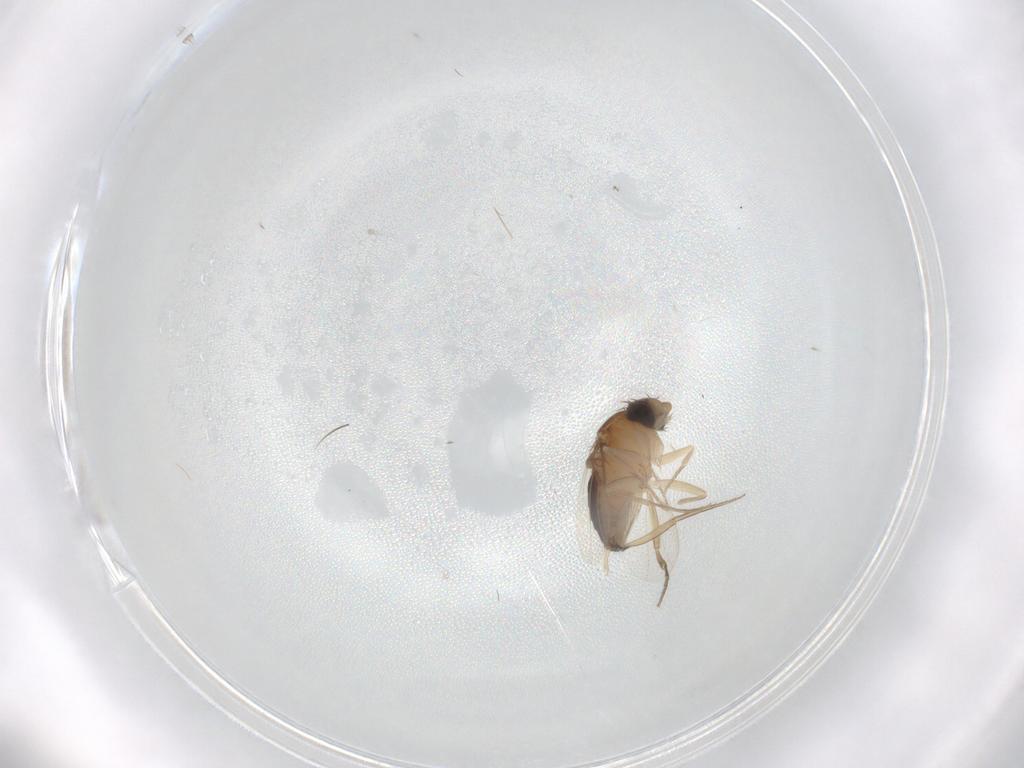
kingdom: Animalia
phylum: Arthropoda
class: Insecta
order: Diptera
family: Phoridae
